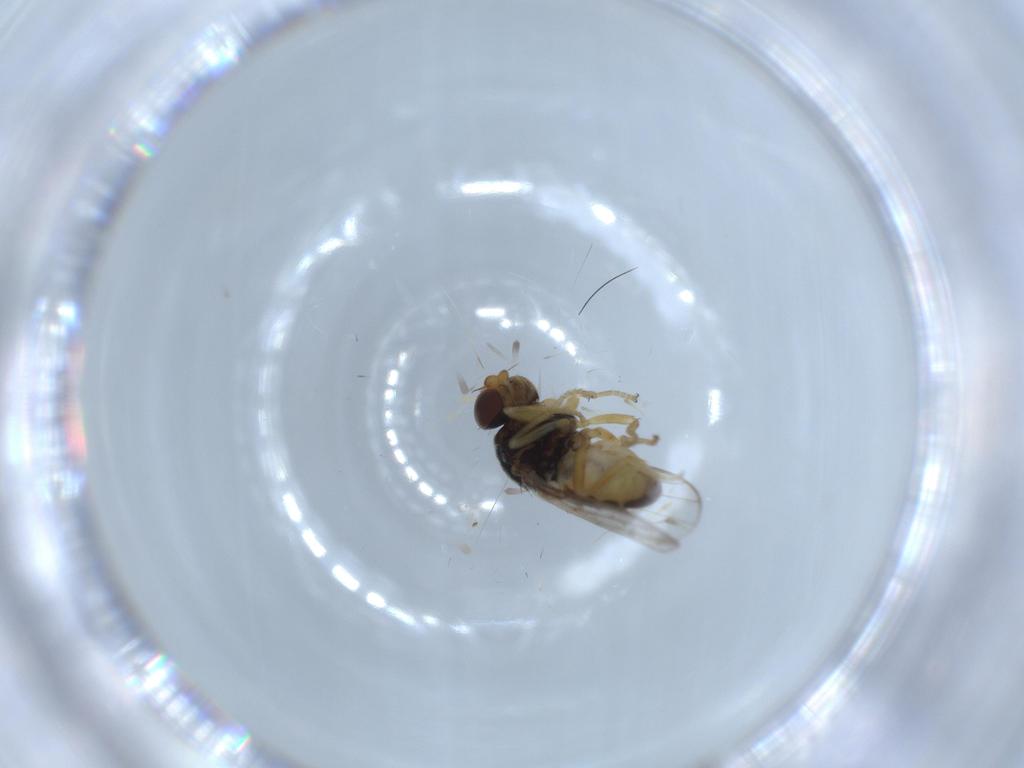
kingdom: Animalia
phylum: Arthropoda
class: Insecta
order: Diptera
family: Chloropidae
